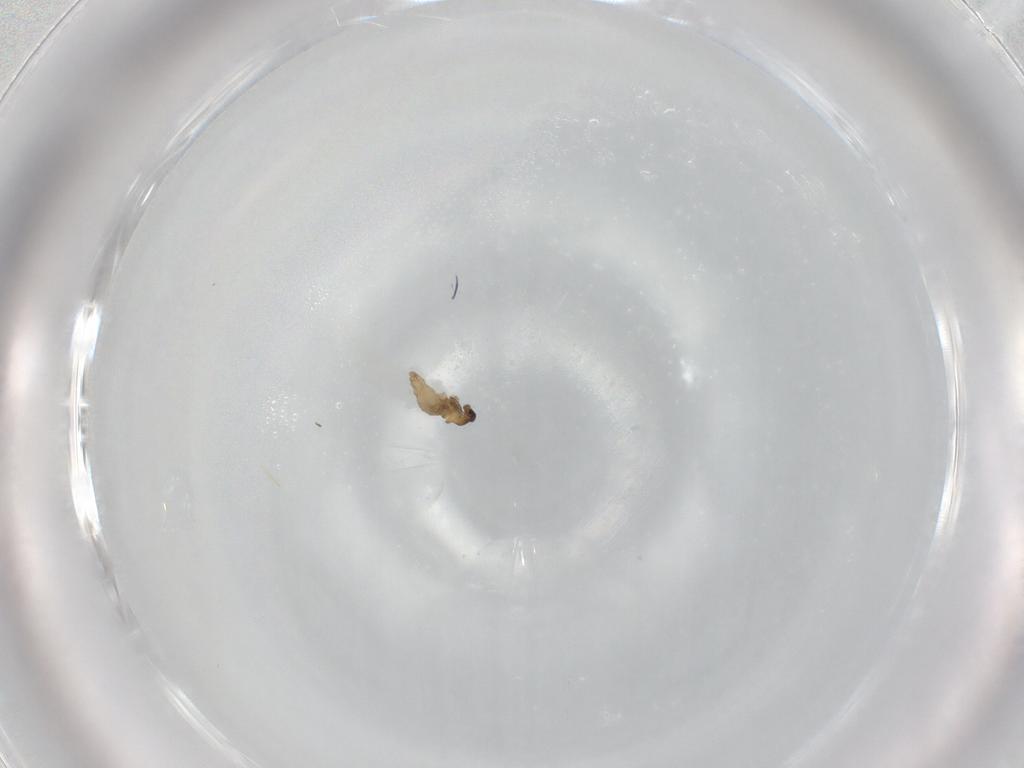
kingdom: Animalia
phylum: Arthropoda
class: Insecta
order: Diptera
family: Cecidomyiidae
